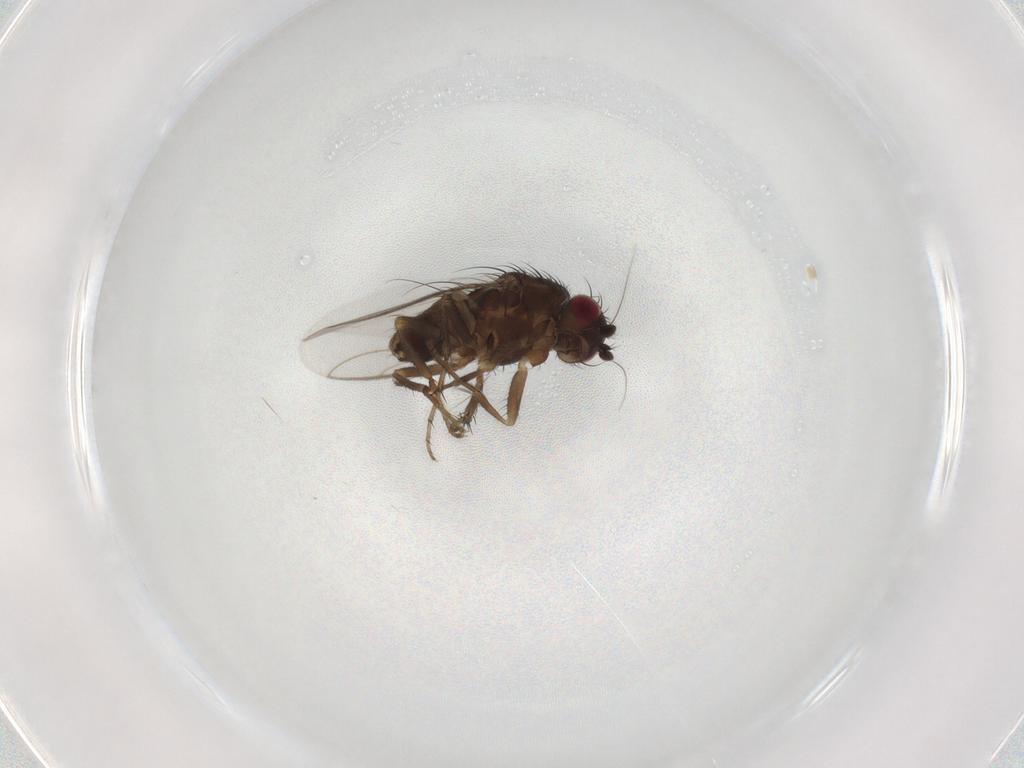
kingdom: Animalia
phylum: Arthropoda
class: Insecta
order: Diptera
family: Sphaeroceridae
